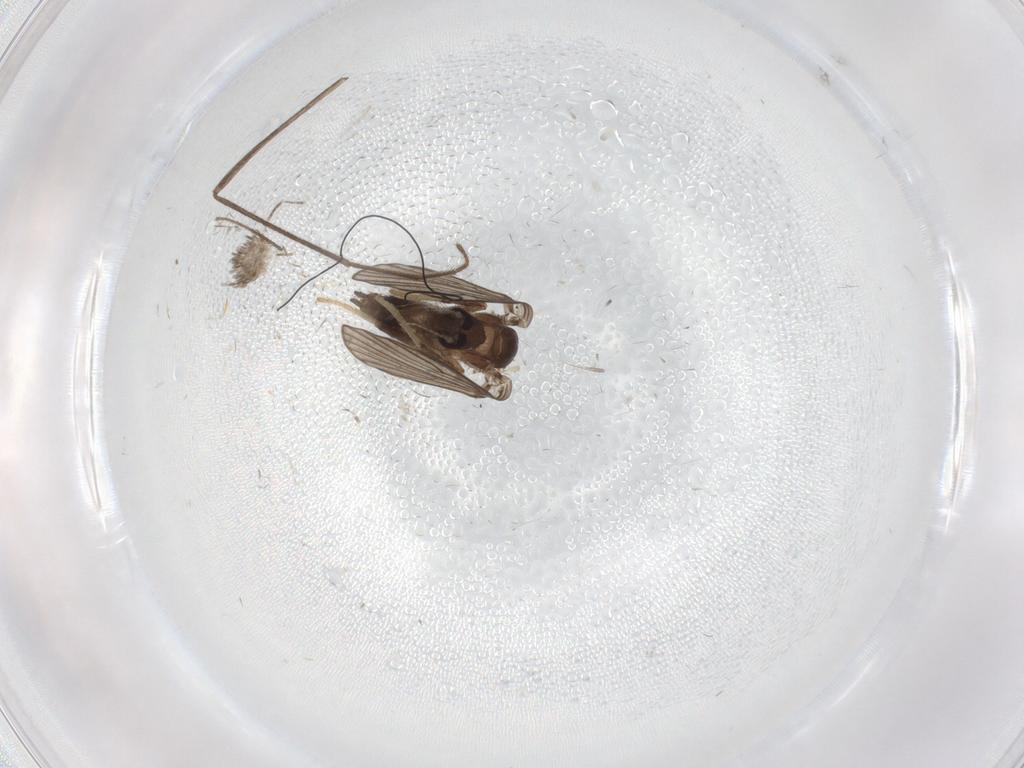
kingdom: Animalia
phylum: Arthropoda
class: Insecta
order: Diptera
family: Psychodidae
